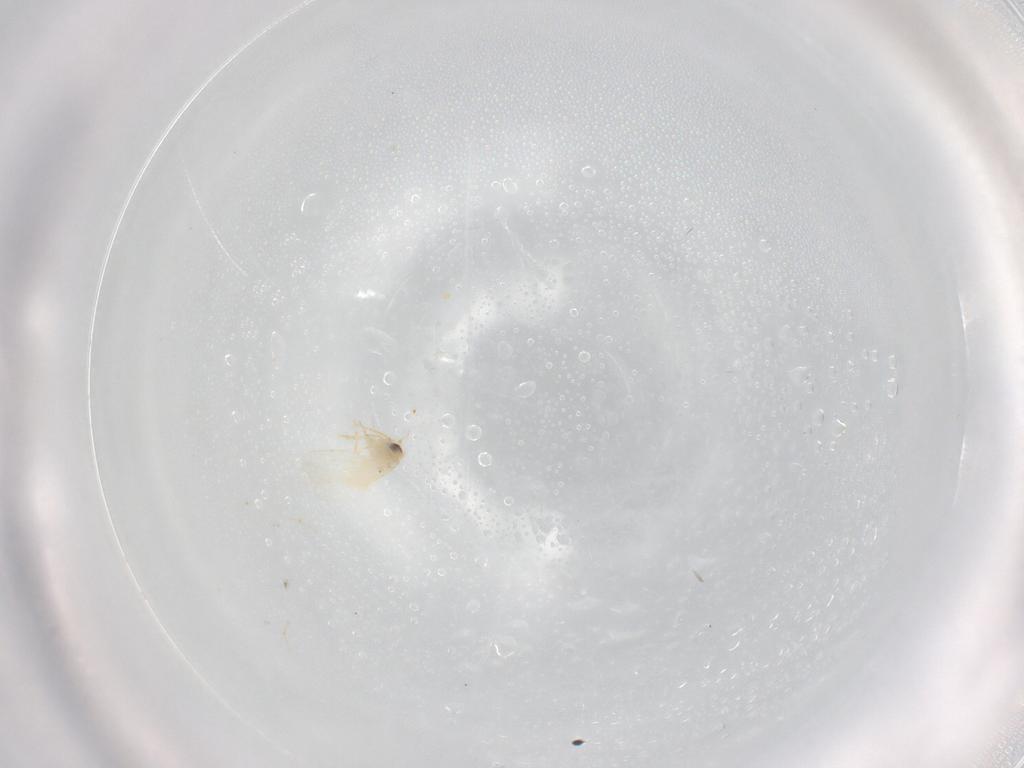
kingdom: Animalia
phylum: Arthropoda
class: Insecta
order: Hemiptera
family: Aleyrodidae
